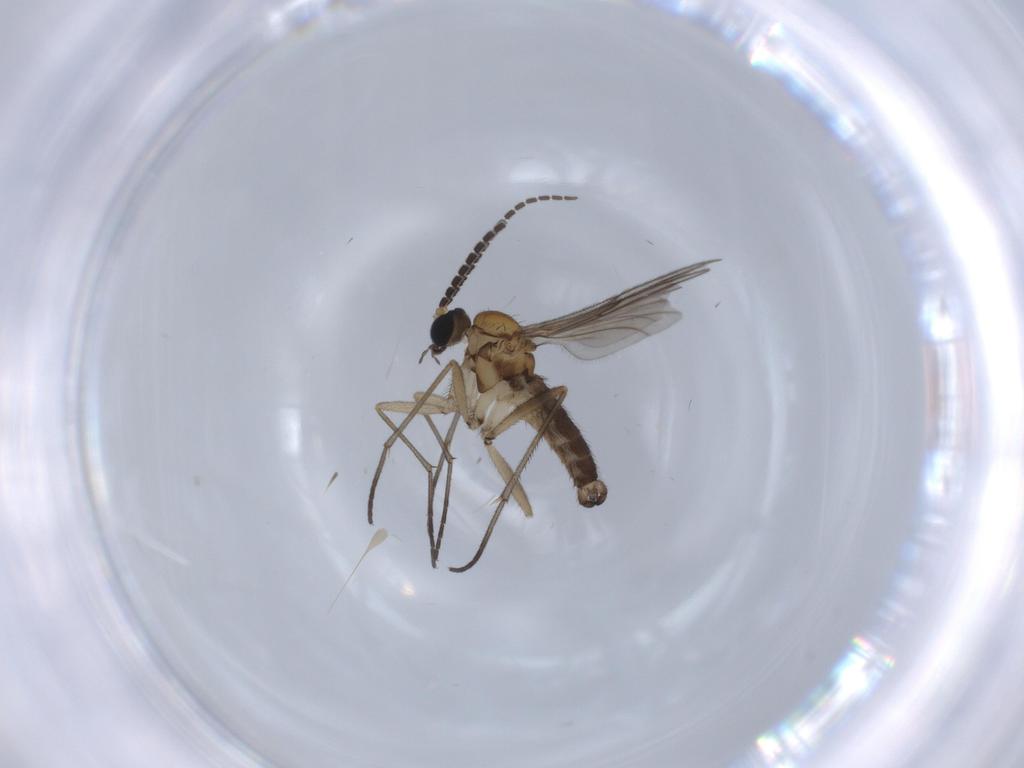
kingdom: Animalia
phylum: Arthropoda
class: Insecta
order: Diptera
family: Sciaridae
